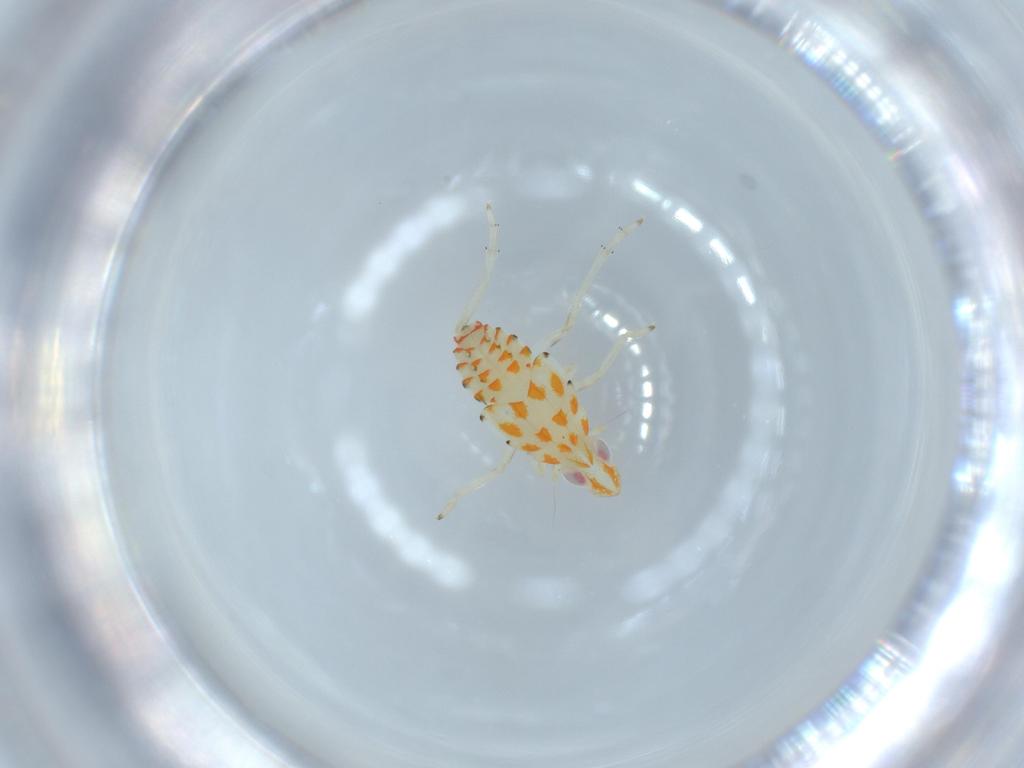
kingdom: Animalia
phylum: Arthropoda
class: Insecta
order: Hemiptera
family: Tropiduchidae
